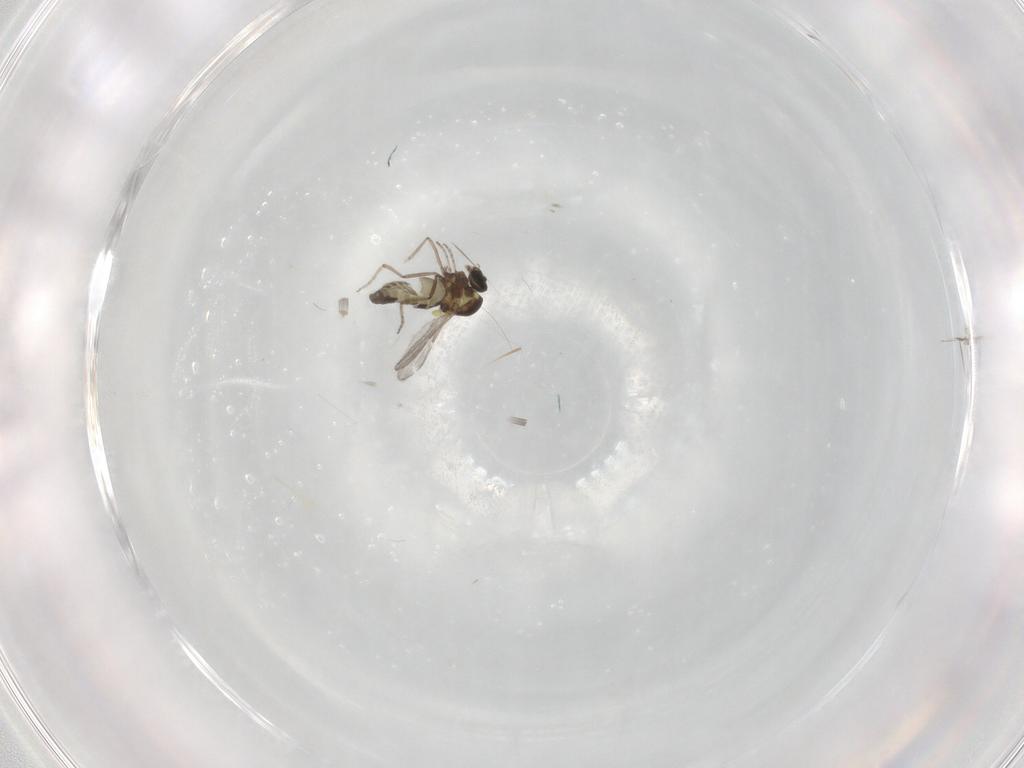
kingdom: Animalia
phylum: Arthropoda
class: Insecta
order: Diptera
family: Ceratopogonidae
